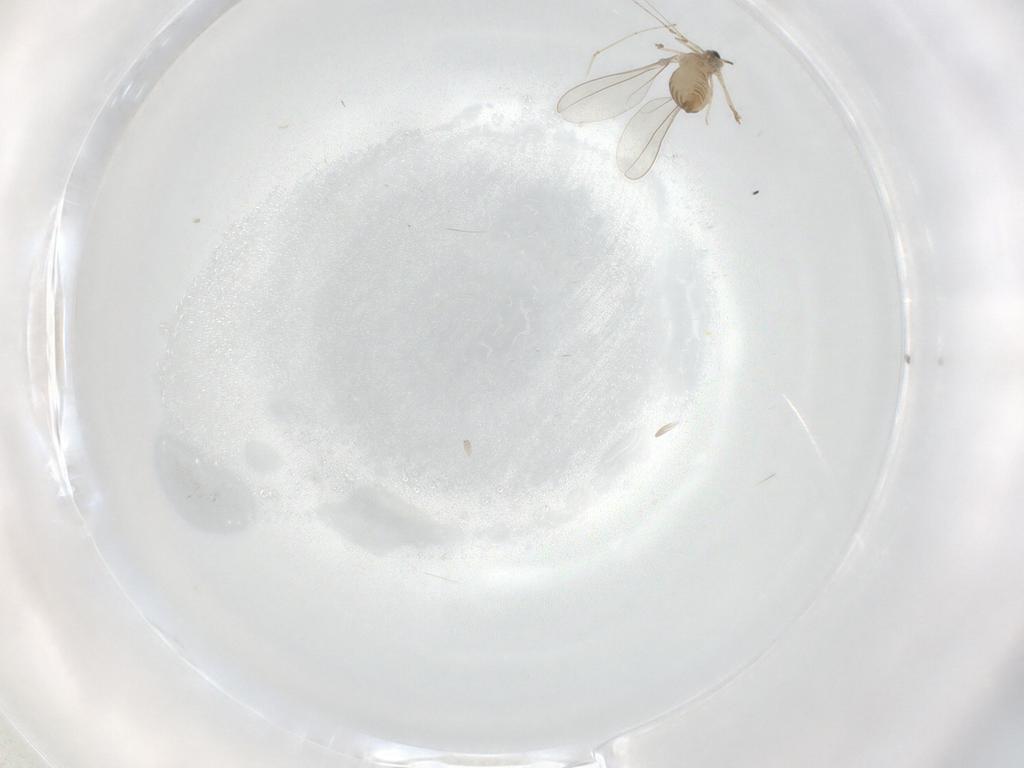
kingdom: Animalia
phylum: Arthropoda
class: Insecta
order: Diptera
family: Cecidomyiidae
